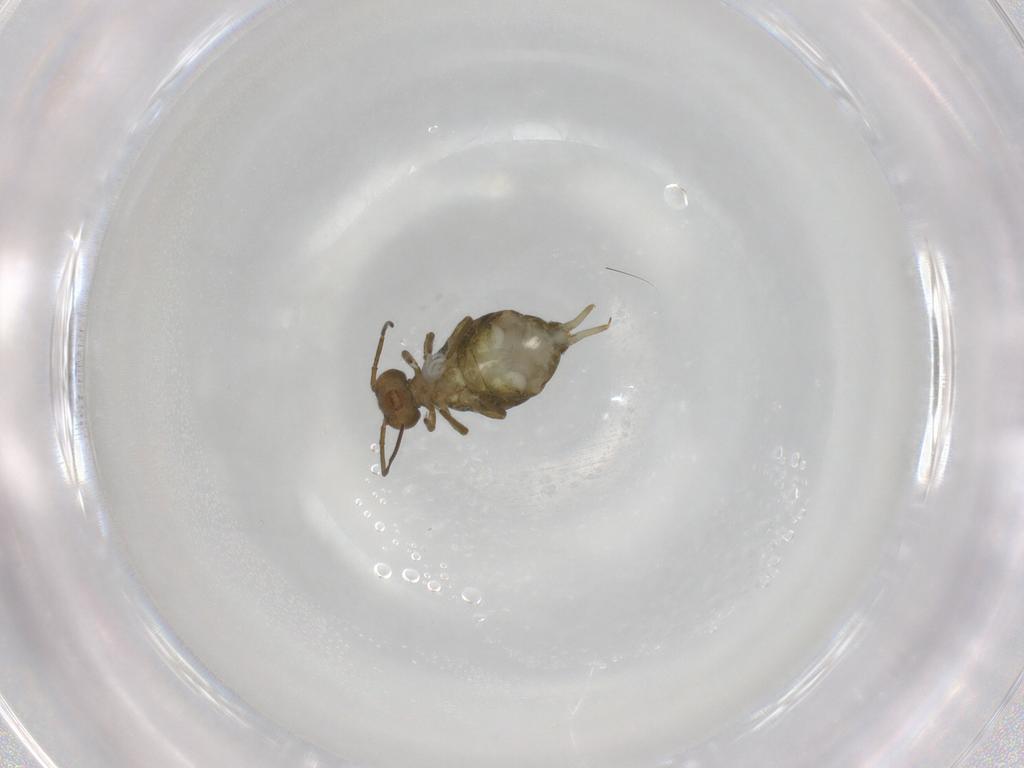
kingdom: Animalia
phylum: Arthropoda
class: Collembola
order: Symphypleona
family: Sminthuridae
